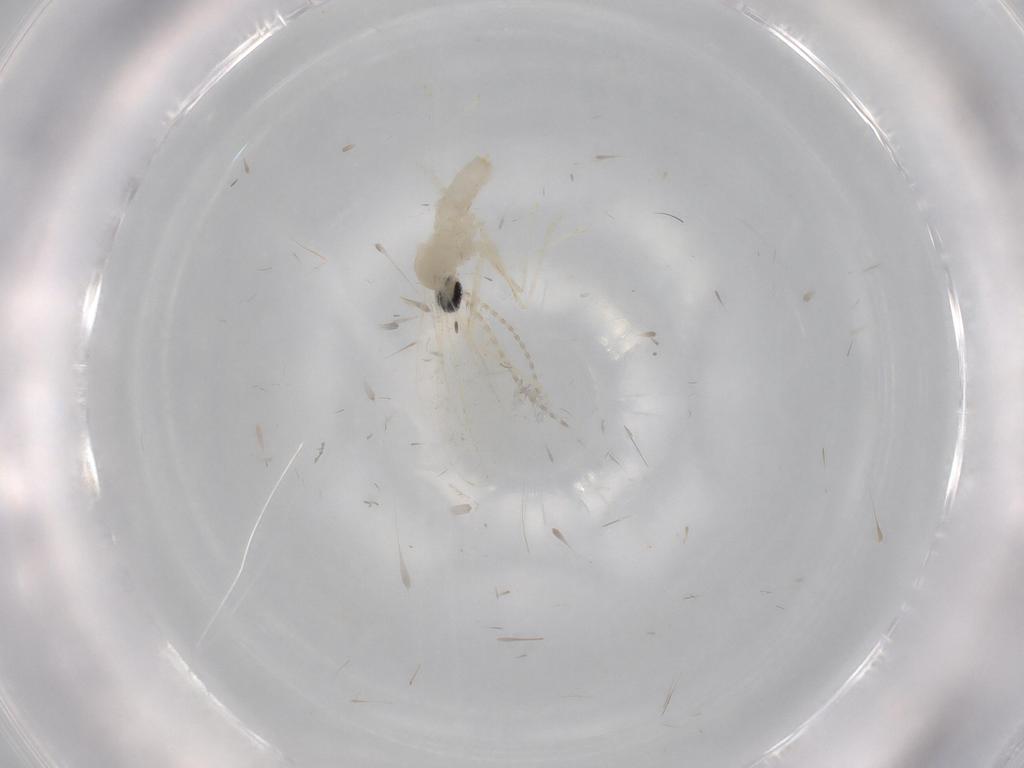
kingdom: Animalia
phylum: Arthropoda
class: Insecta
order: Diptera
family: Cecidomyiidae
